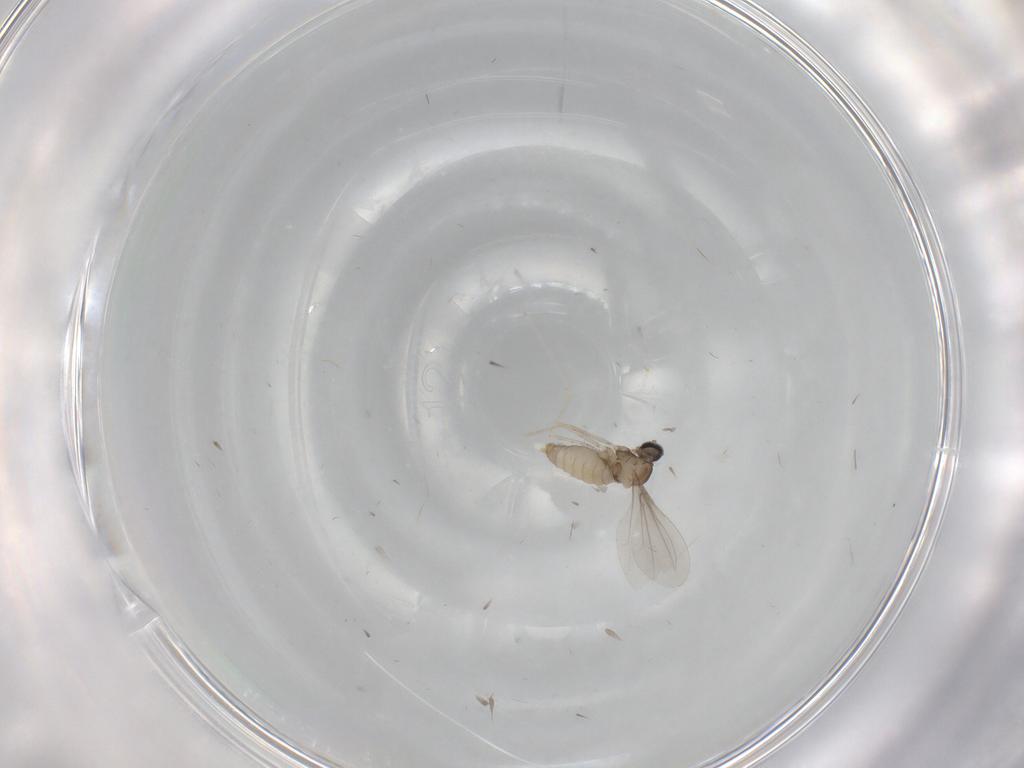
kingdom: Animalia
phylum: Arthropoda
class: Insecta
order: Diptera
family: Cecidomyiidae
